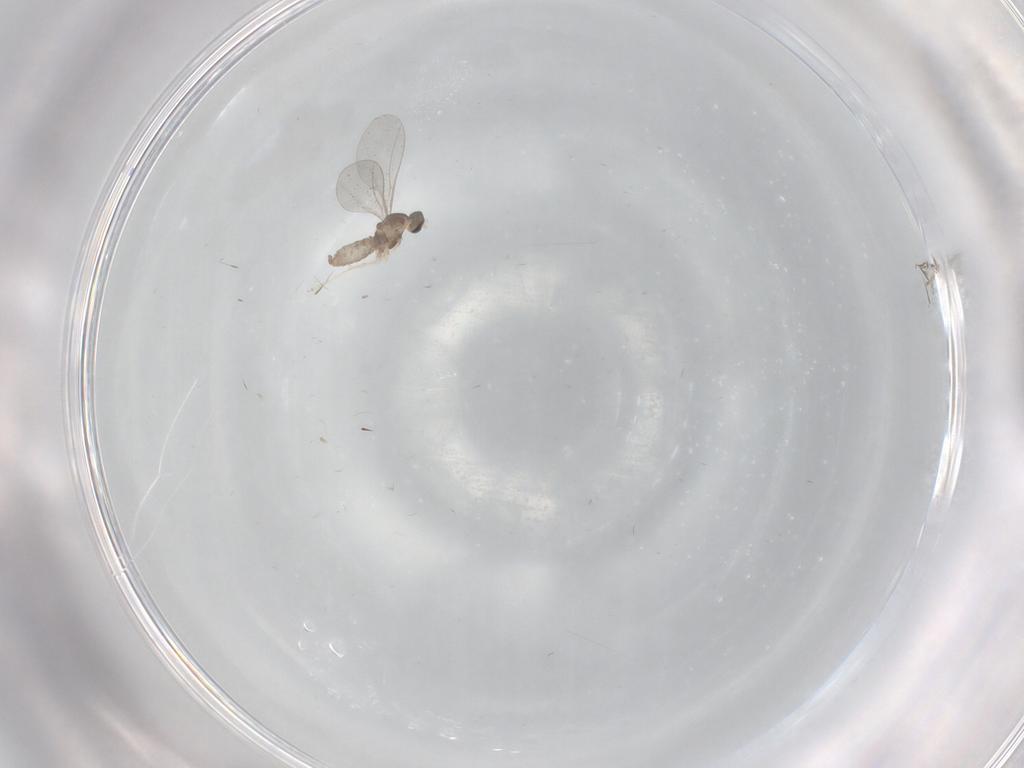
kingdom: Animalia
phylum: Arthropoda
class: Insecta
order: Diptera
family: Cecidomyiidae
